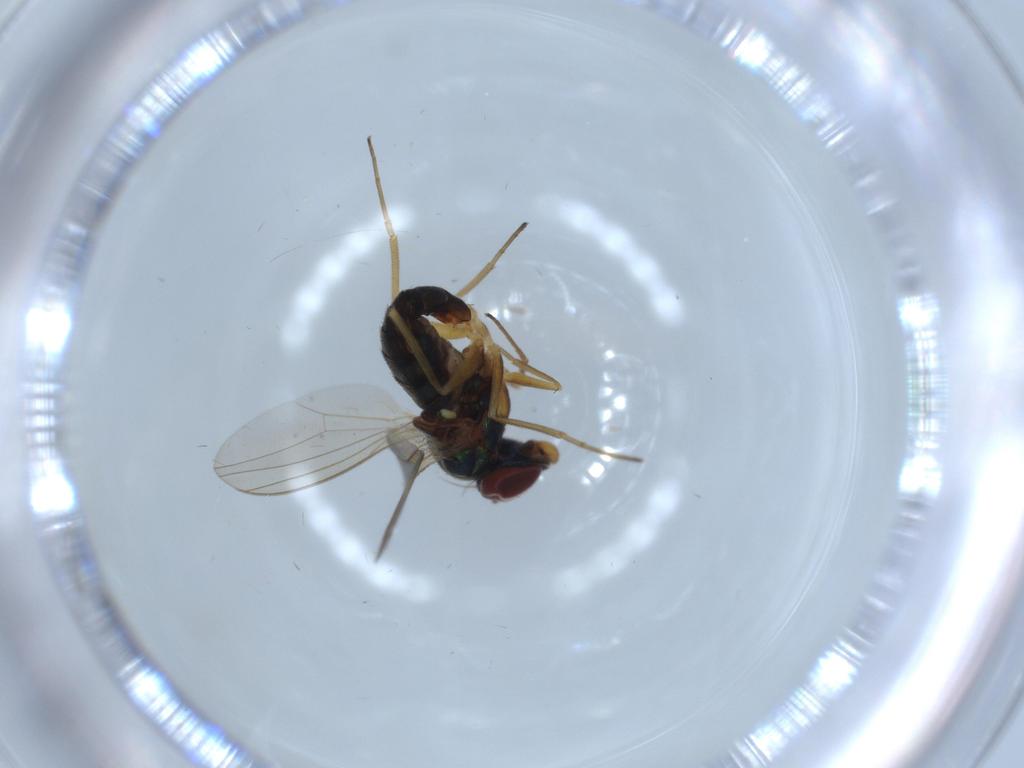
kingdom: Animalia
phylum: Arthropoda
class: Insecta
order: Diptera
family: Dolichopodidae
